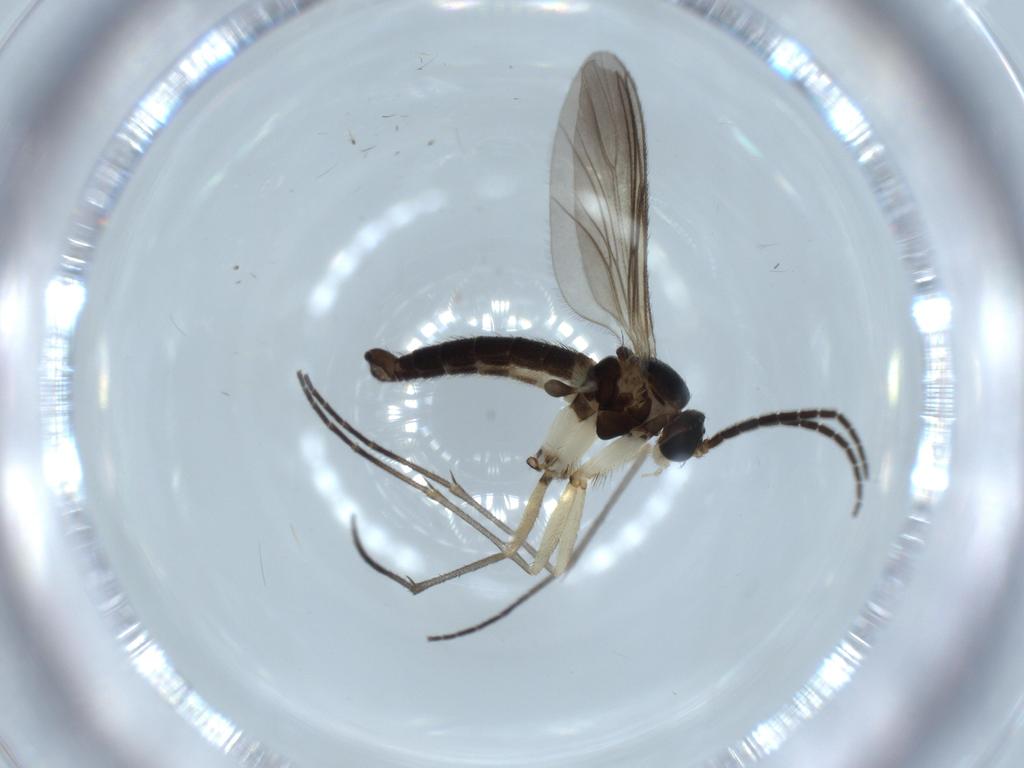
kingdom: Animalia
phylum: Arthropoda
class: Insecta
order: Diptera
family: Sciaridae
